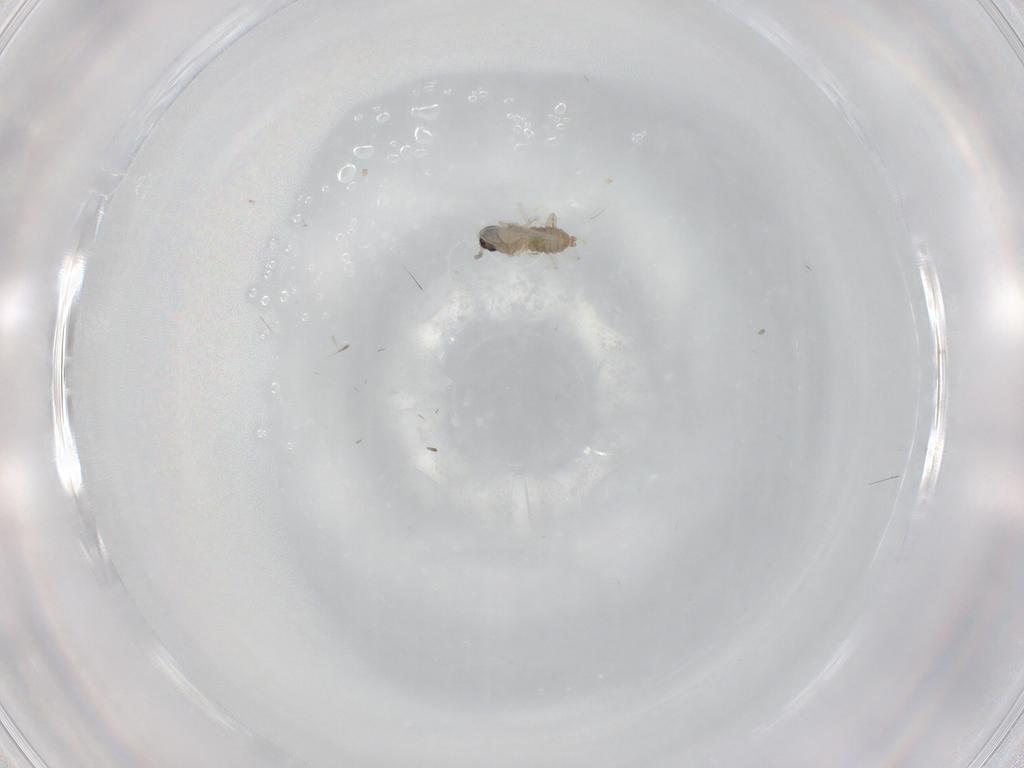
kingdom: Animalia
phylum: Arthropoda
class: Insecta
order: Diptera
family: Cecidomyiidae
